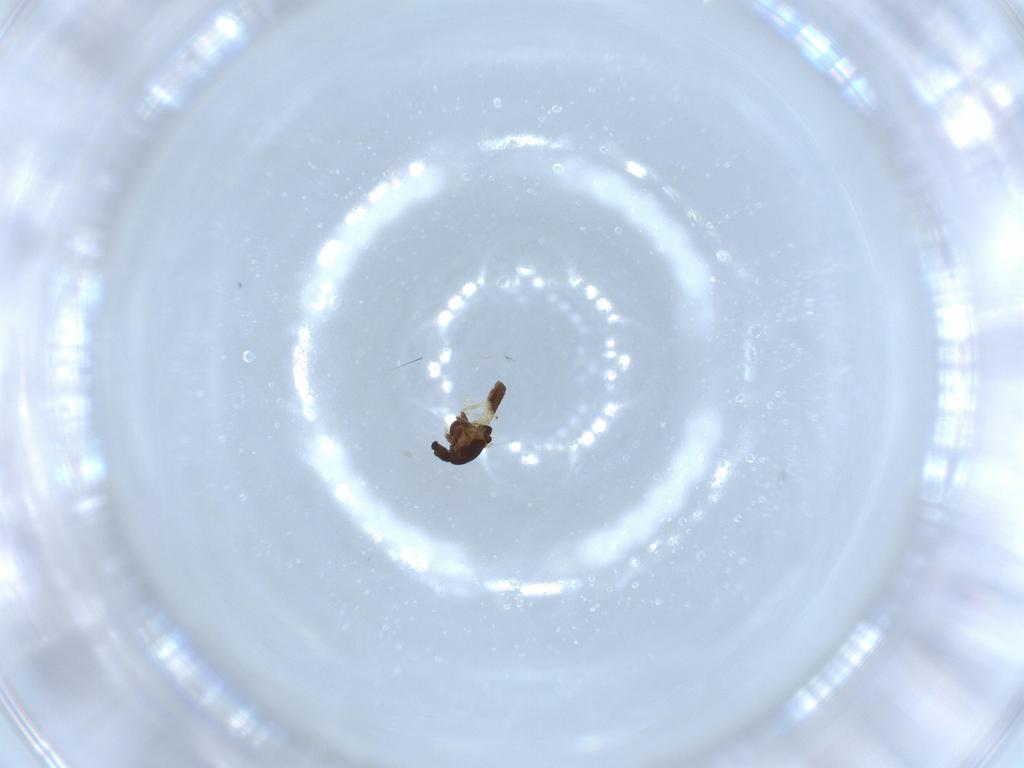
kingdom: Animalia
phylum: Arthropoda
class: Insecta
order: Diptera
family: Chironomidae
